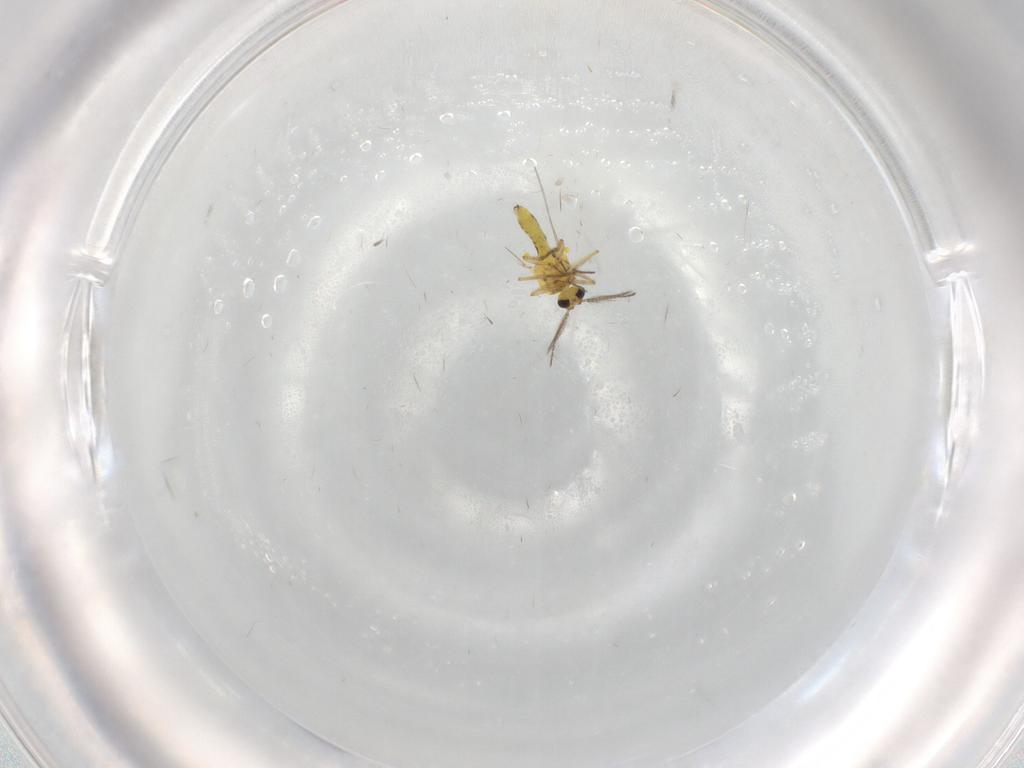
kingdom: Animalia
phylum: Arthropoda
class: Insecta
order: Diptera
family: Ceratopogonidae
